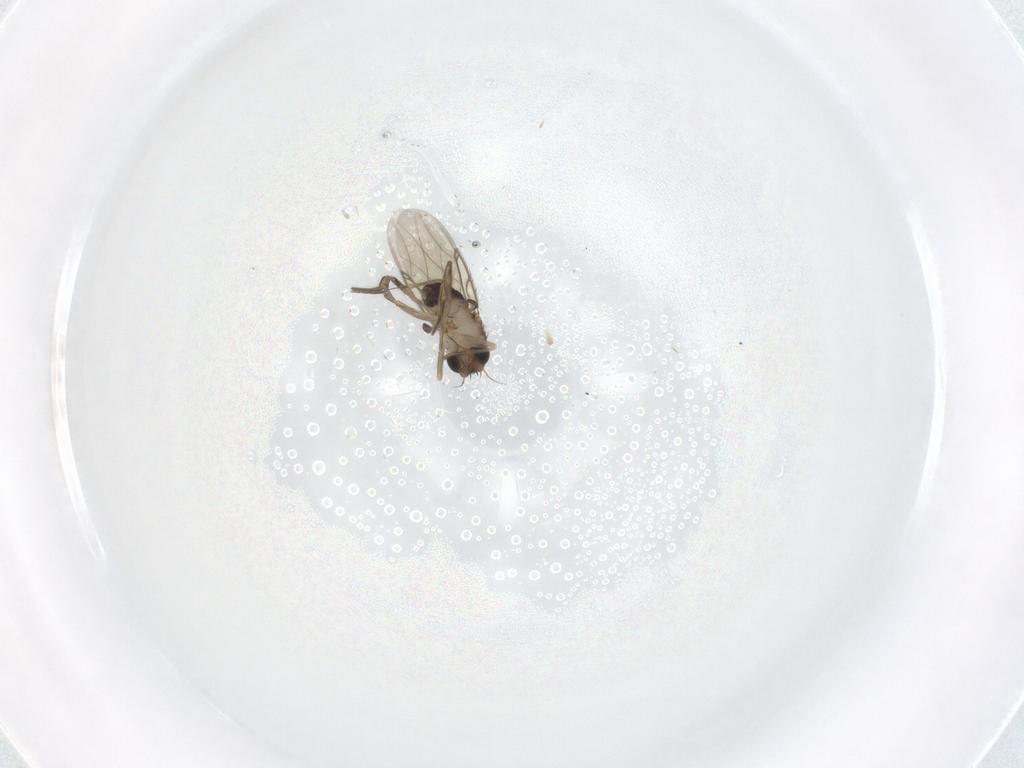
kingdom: Animalia
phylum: Arthropoda
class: Insecta
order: Diptera
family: Phoridae
